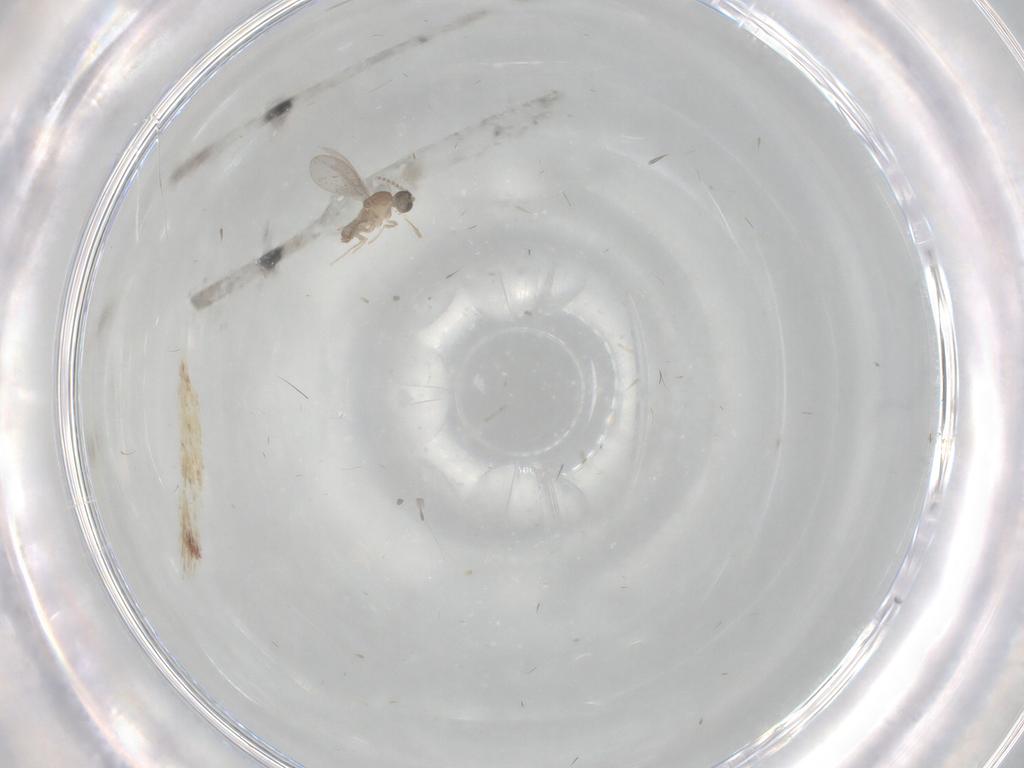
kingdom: Animalia
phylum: Arthropoda
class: Insecta
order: Diptera
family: Cecidomyiidae
